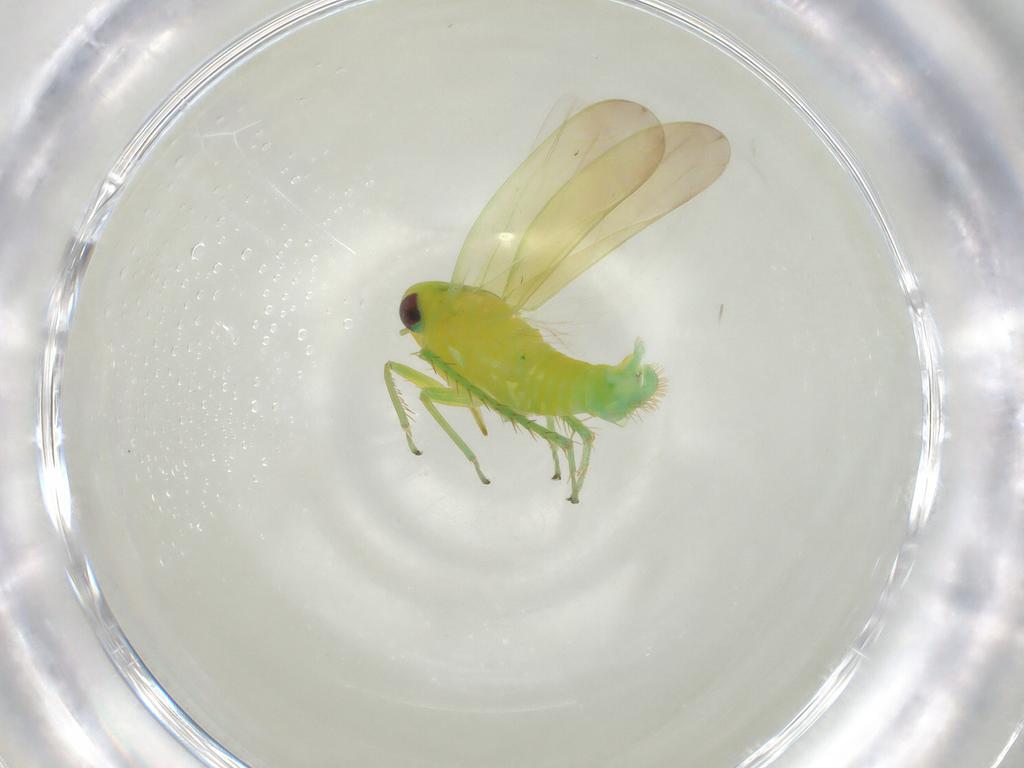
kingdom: Animalia
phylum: Arthropoda
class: Insecta
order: Hemiptera
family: Cicadellidae
